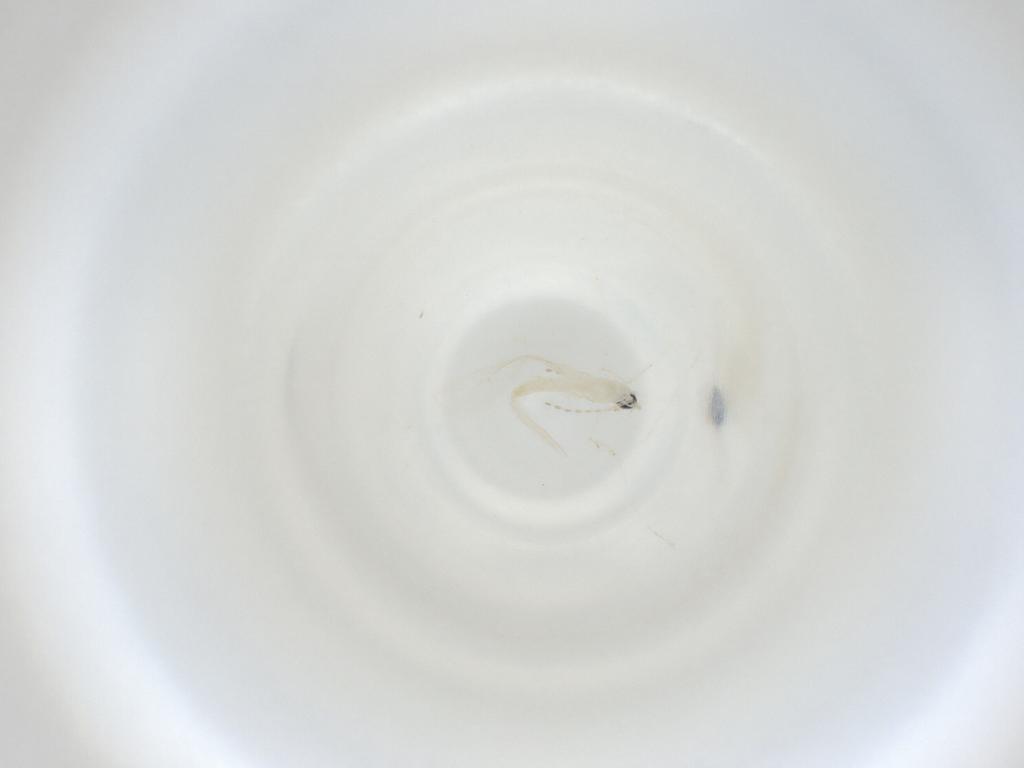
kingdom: Animalia
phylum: Arthropoda
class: Insecta
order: Diptera
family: Cecidomyiidae
